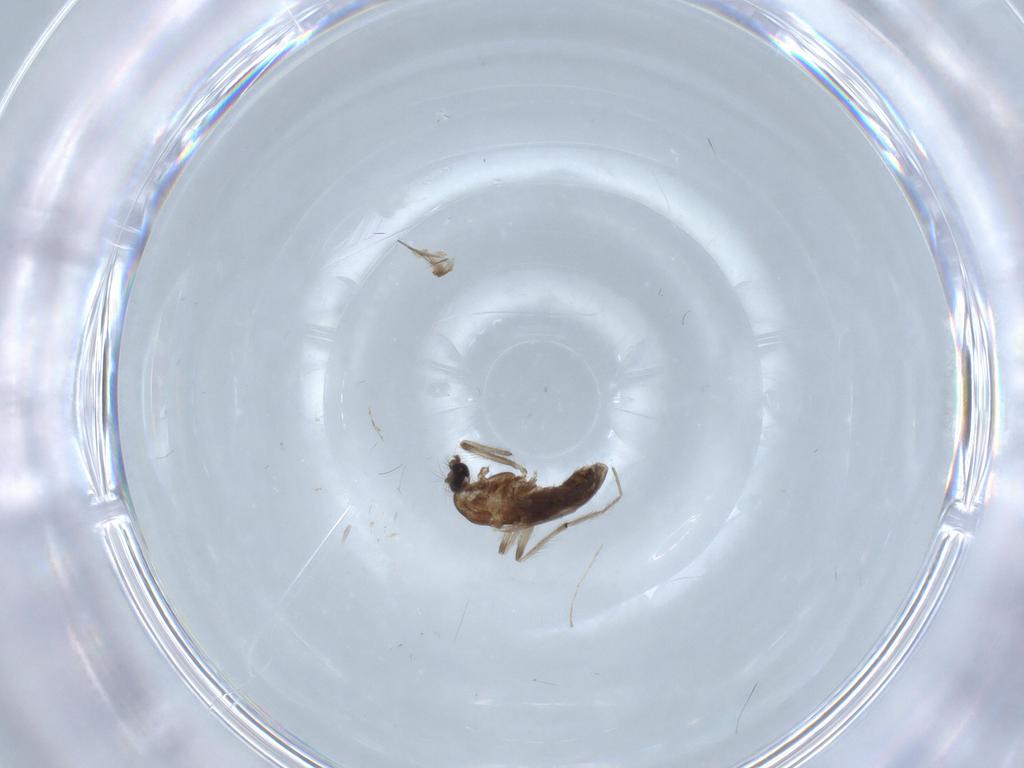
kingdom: Animalia
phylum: Arthropoda
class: Insecta
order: Diptera
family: Chironomidae
